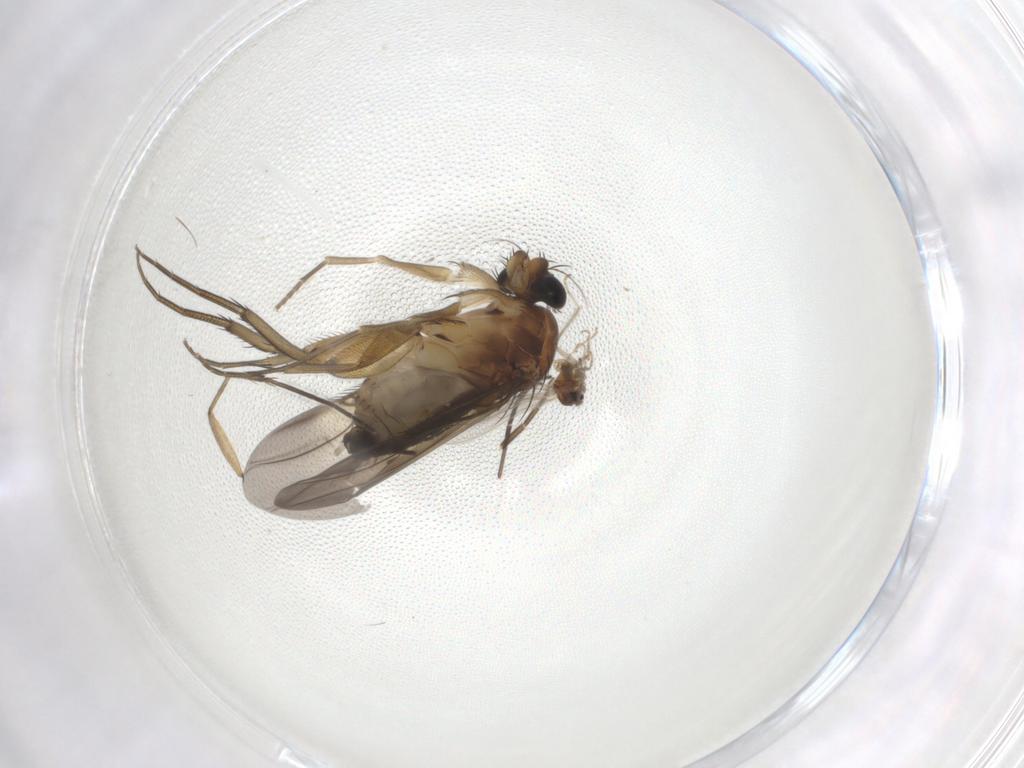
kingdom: Animalia
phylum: Arthropoda
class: Insecta
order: Diptera
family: Phoridae
